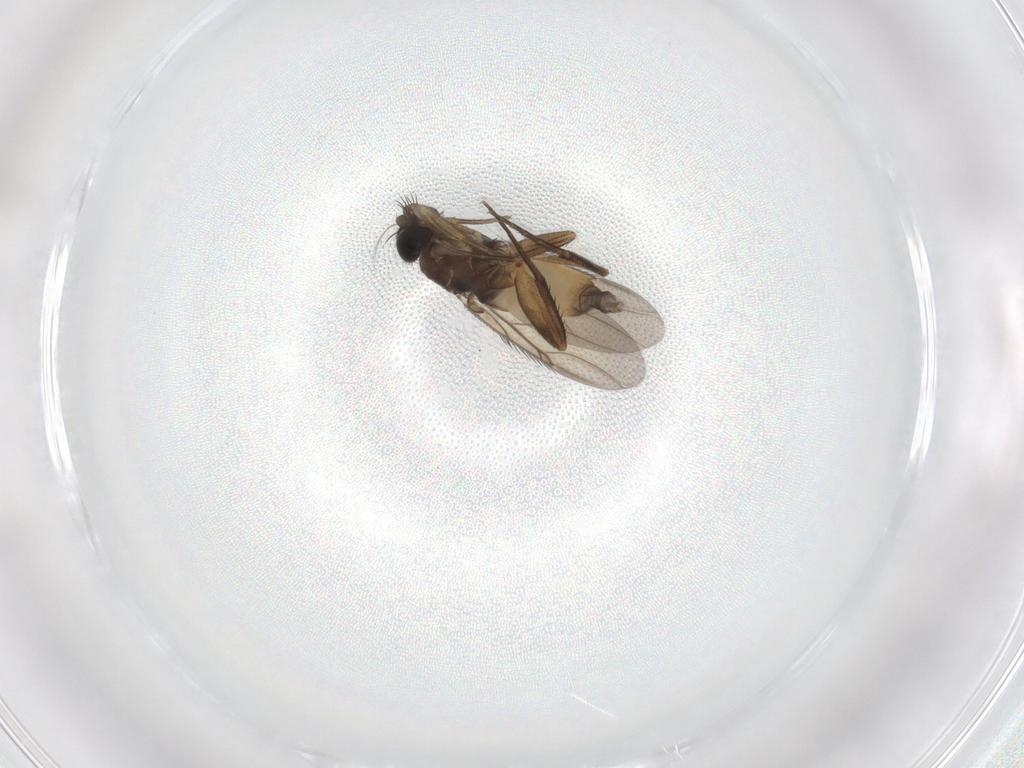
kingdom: Animalia
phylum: Arthropoda
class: Insecta
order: Diptera
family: Phoridae
